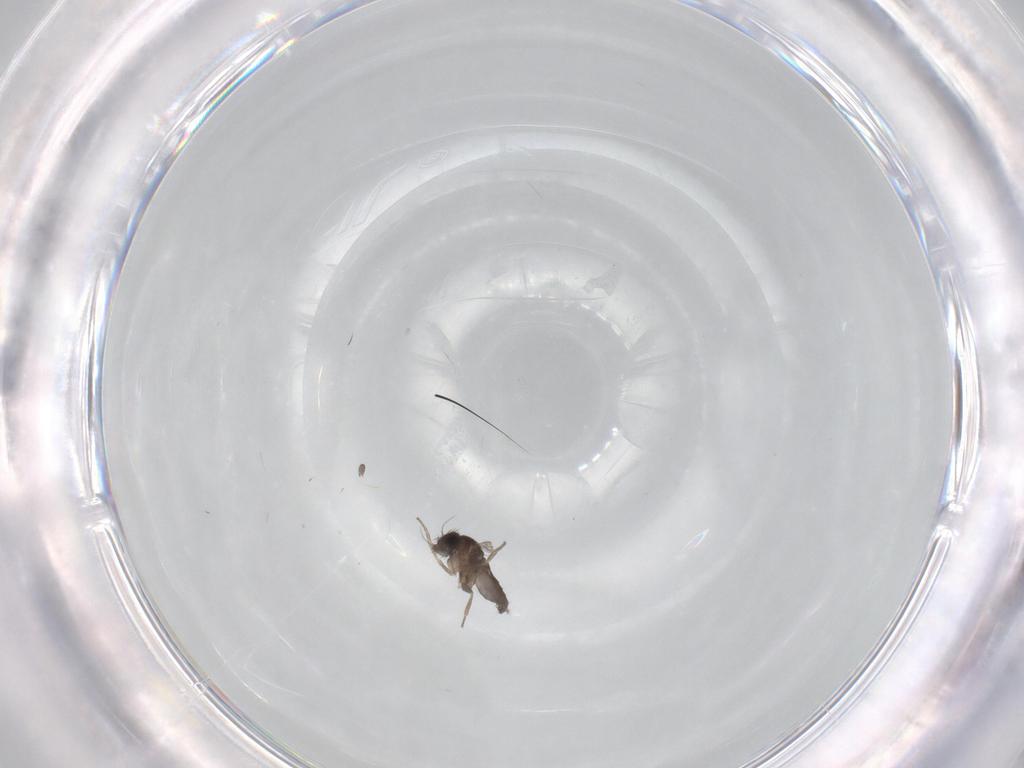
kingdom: Animalia
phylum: Arthropoda
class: Insecta
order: Diptera
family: Phoridae
